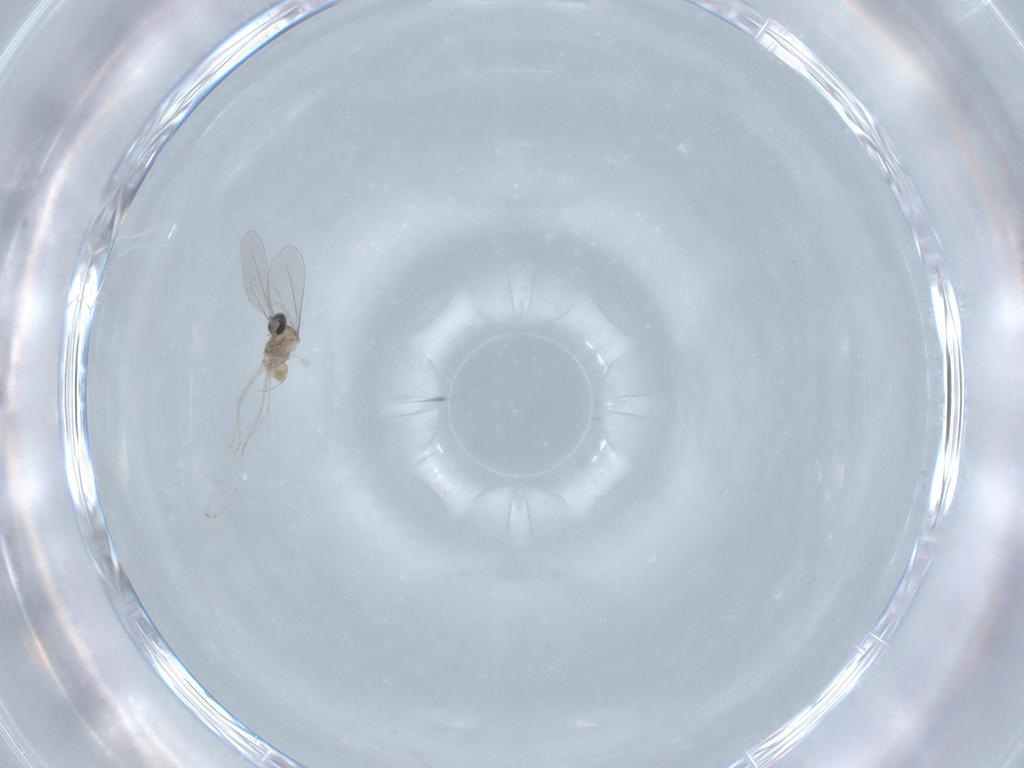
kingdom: Animalia
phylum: Arthropoda
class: Insecta
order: Diptera
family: Cecidomyiidae
